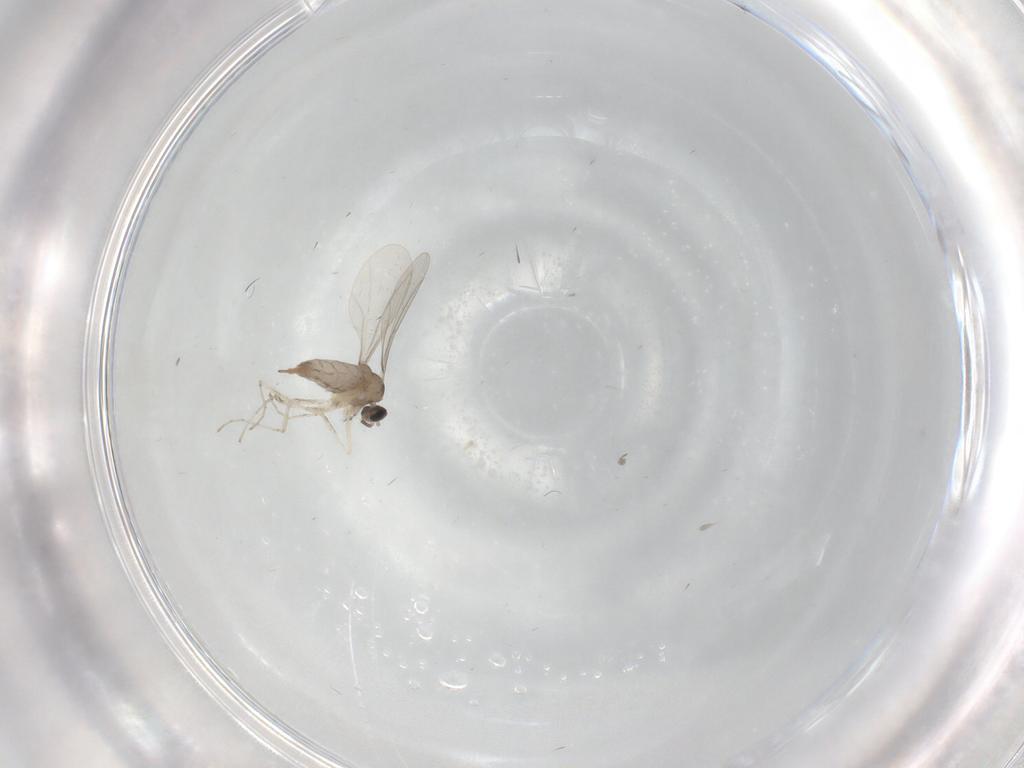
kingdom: Animalia
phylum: Arthropoda
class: Insecta
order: Diptera
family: Cecidomyiidae
